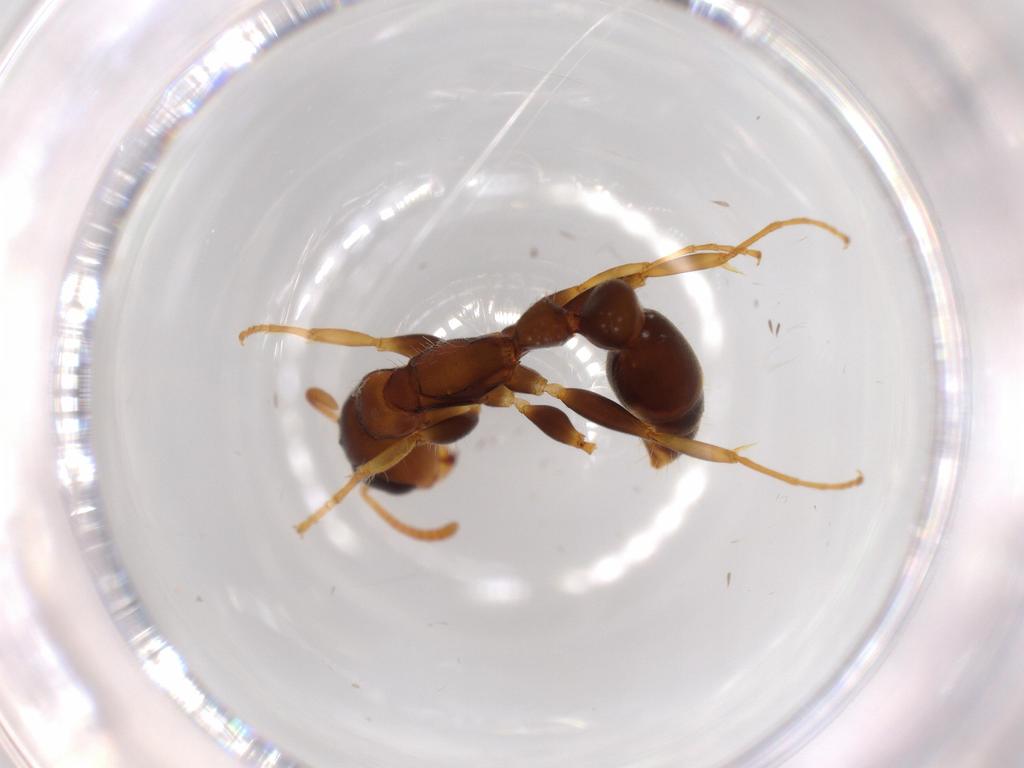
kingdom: Animalia
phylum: Arthropoda
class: Insecta
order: Hymenoptera
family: Formicidae
